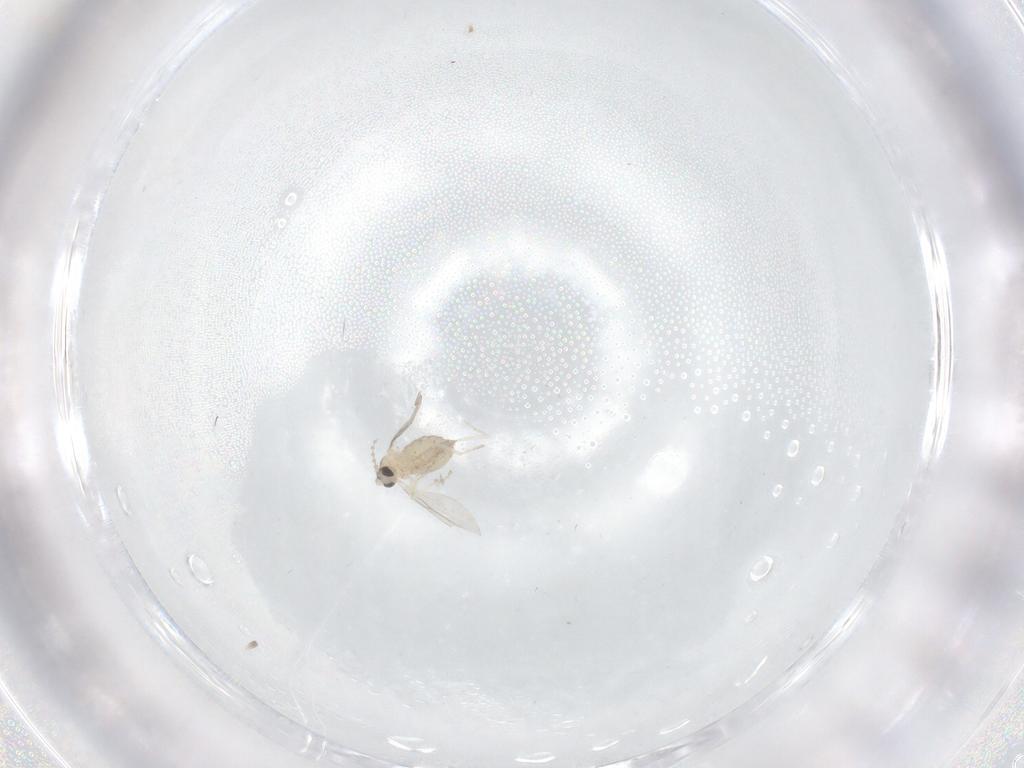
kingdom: Animalia
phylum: Arthropoda
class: Insecta
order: Diptera
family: Cecidomyiidae
